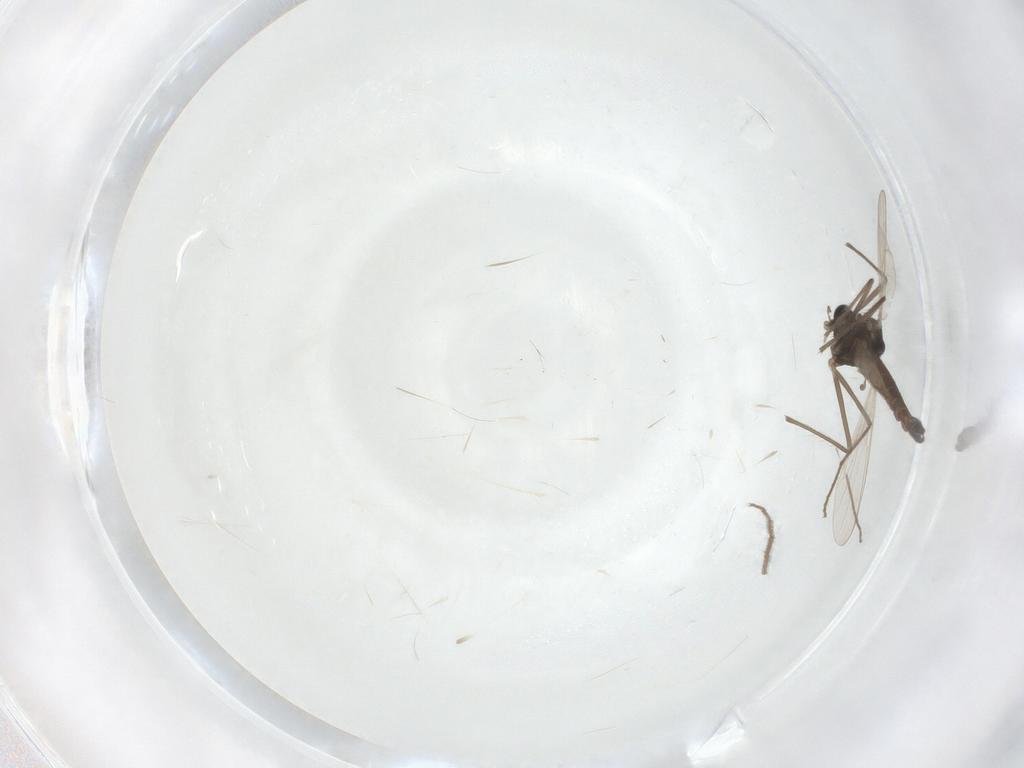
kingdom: Animalia
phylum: Arthropoda
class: Insecta
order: Diptera
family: Chironomidae
